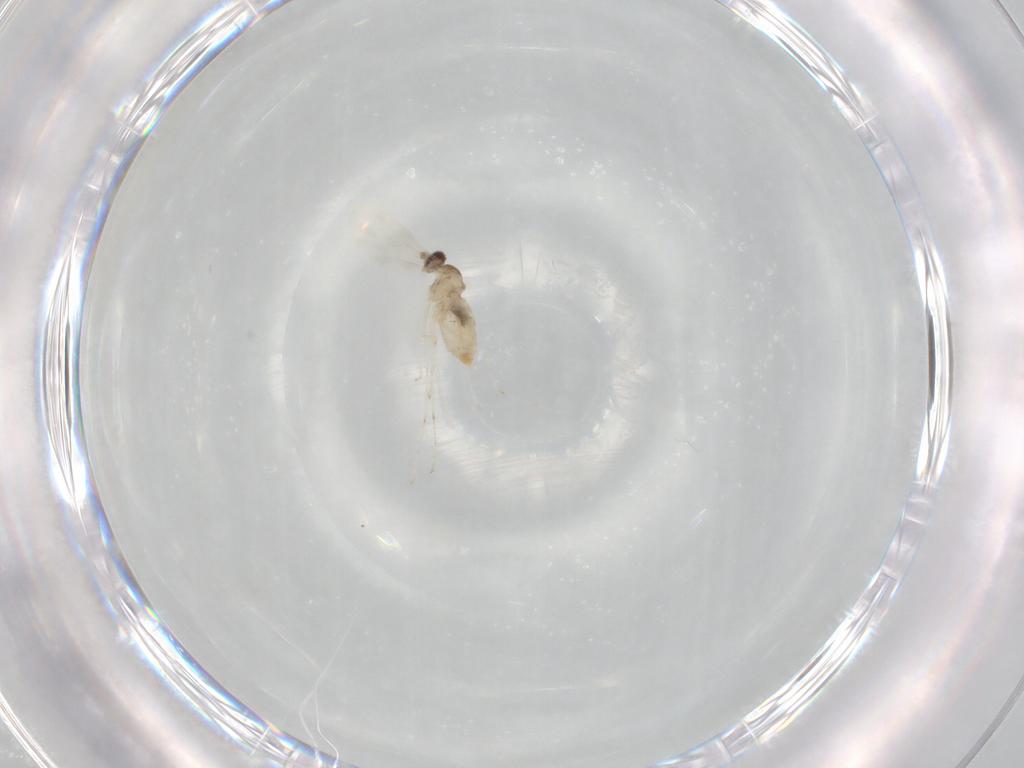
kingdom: Animalia
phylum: Arthropoda
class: Insecta
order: Diptera
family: Cecidomyiidae
